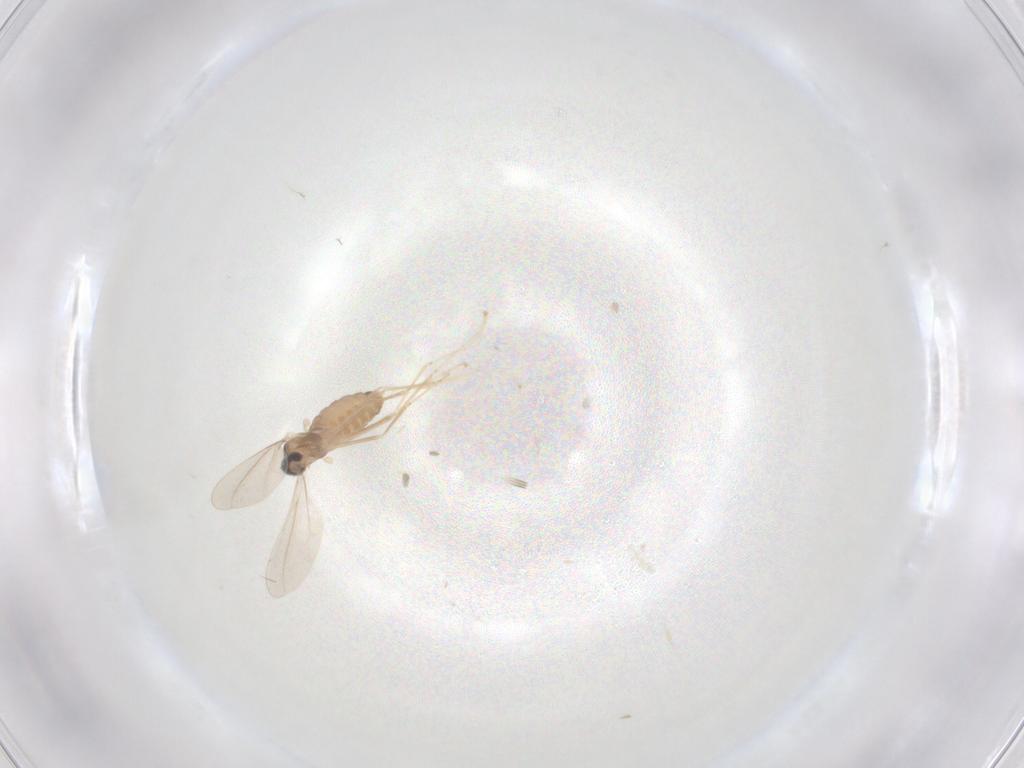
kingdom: Animalia
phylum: Arthropoda
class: Insecta
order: Diptera
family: Cecidomyiidae
